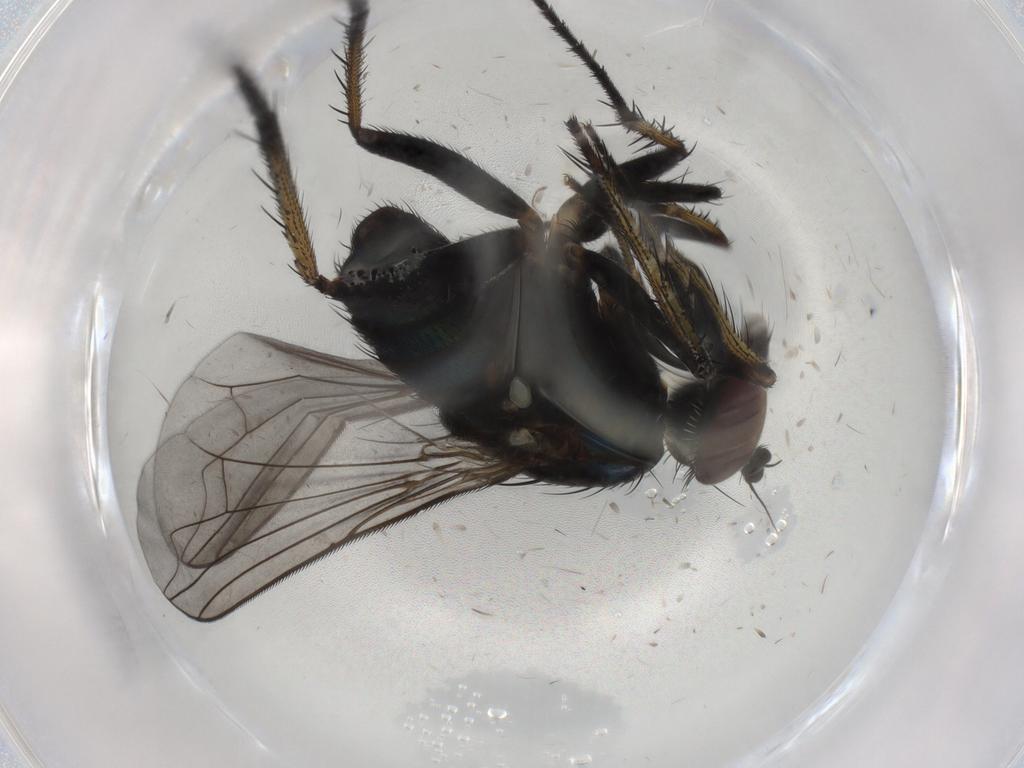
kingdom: Animalia
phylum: Arthropoda
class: Insecta
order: Diptera
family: Dolichopodidae
